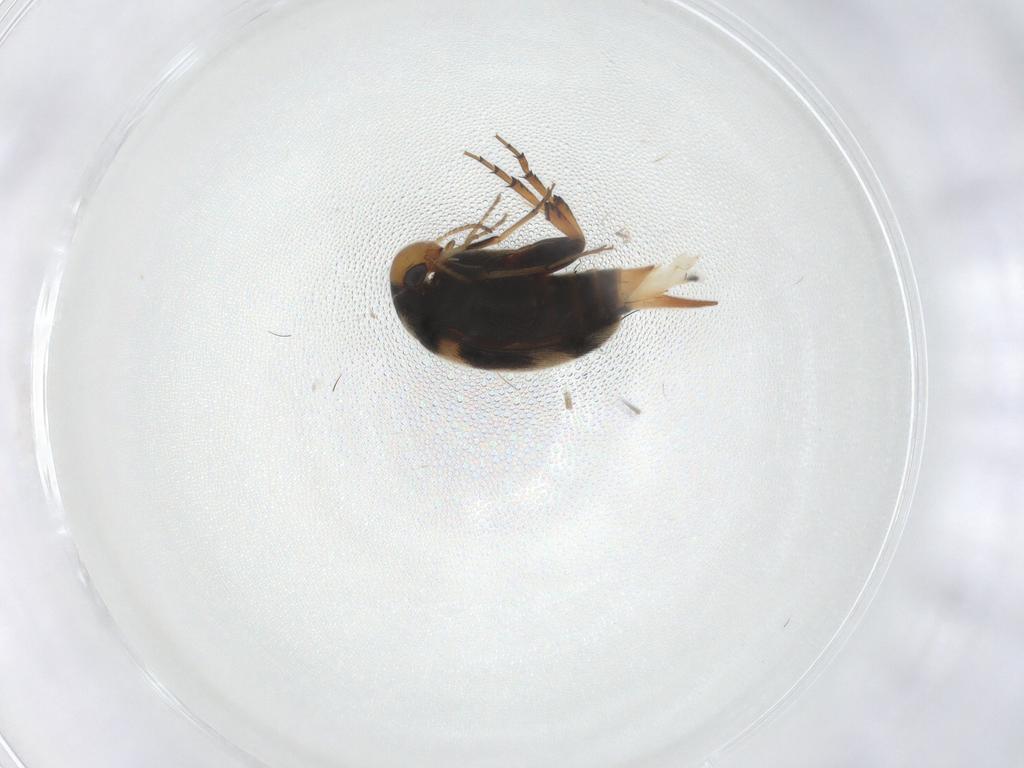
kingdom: Animalia
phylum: Arthropoda
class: Insecta
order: Coleoptera
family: Mordellidae
